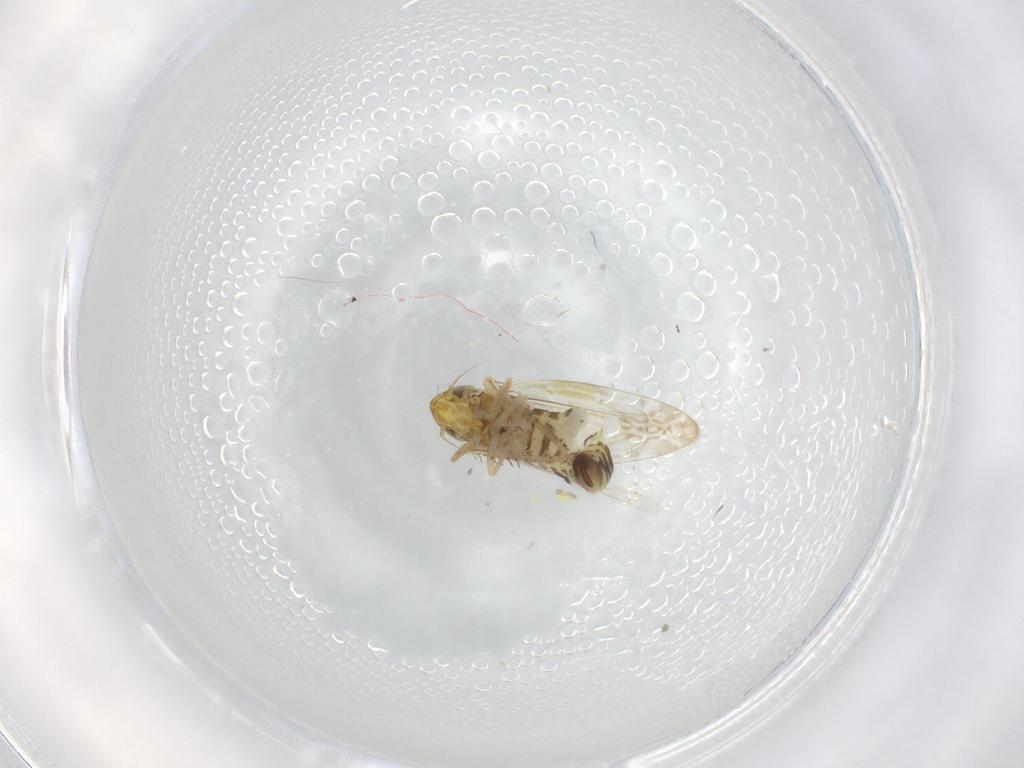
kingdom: Animalia
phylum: Arthropoda
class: Insecta
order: Hemiptera
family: Cicadellidae
